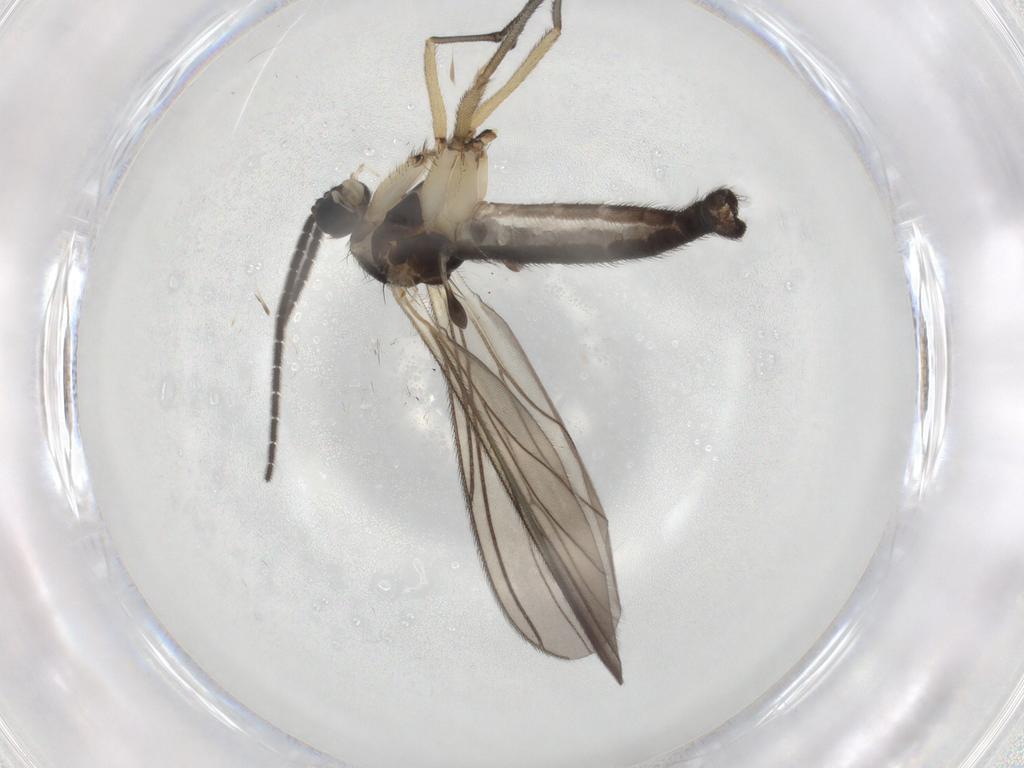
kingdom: Animalia
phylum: Arthropoda
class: Insecta
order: Diptera
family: Sciaridae
